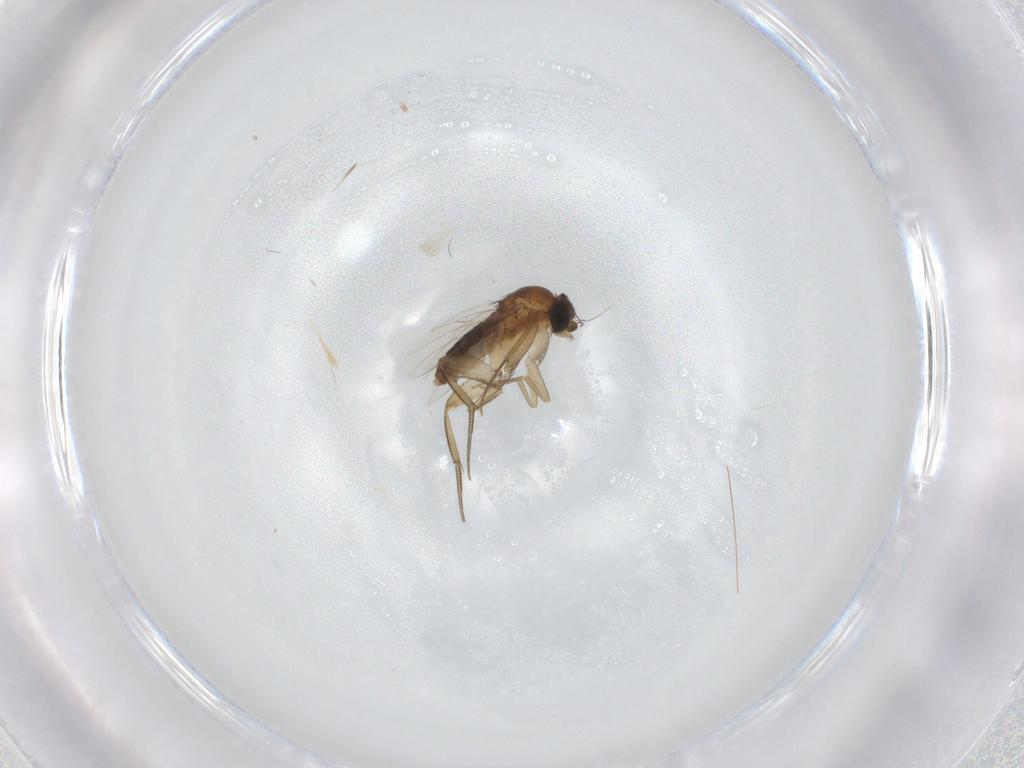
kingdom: Animalia
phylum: Arthropoda
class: Insecta
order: Diptera
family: Phoridae
